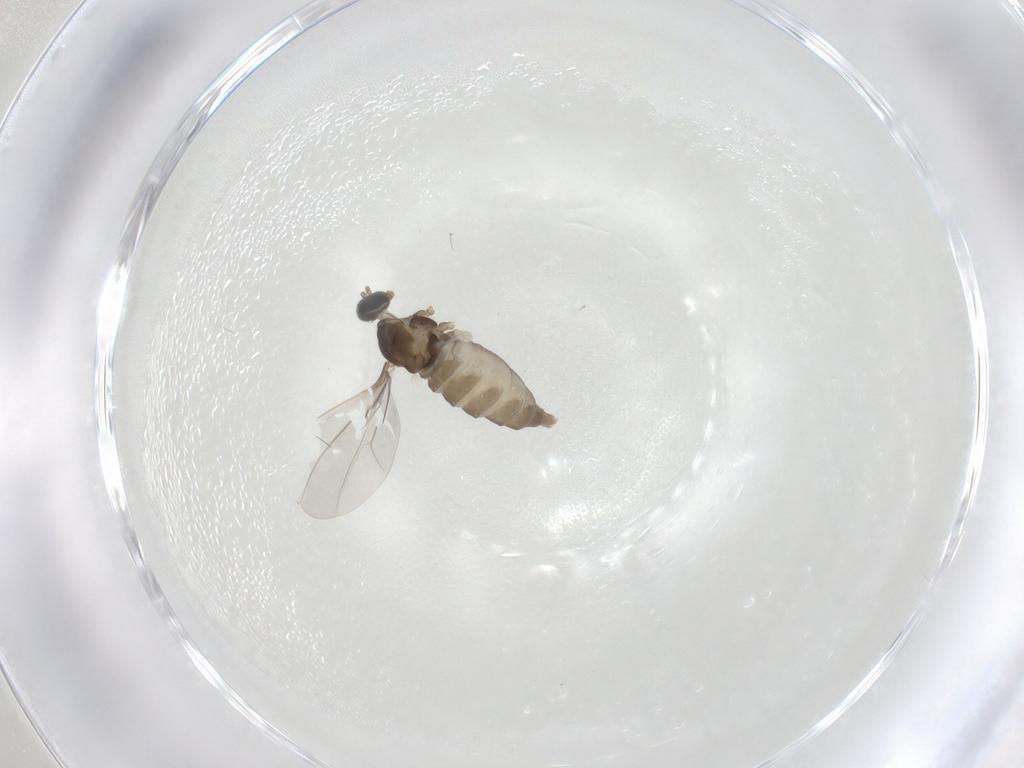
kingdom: Animalia
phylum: Arthropoda
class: Insecta
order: Diptera
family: Cecidomyiidae
